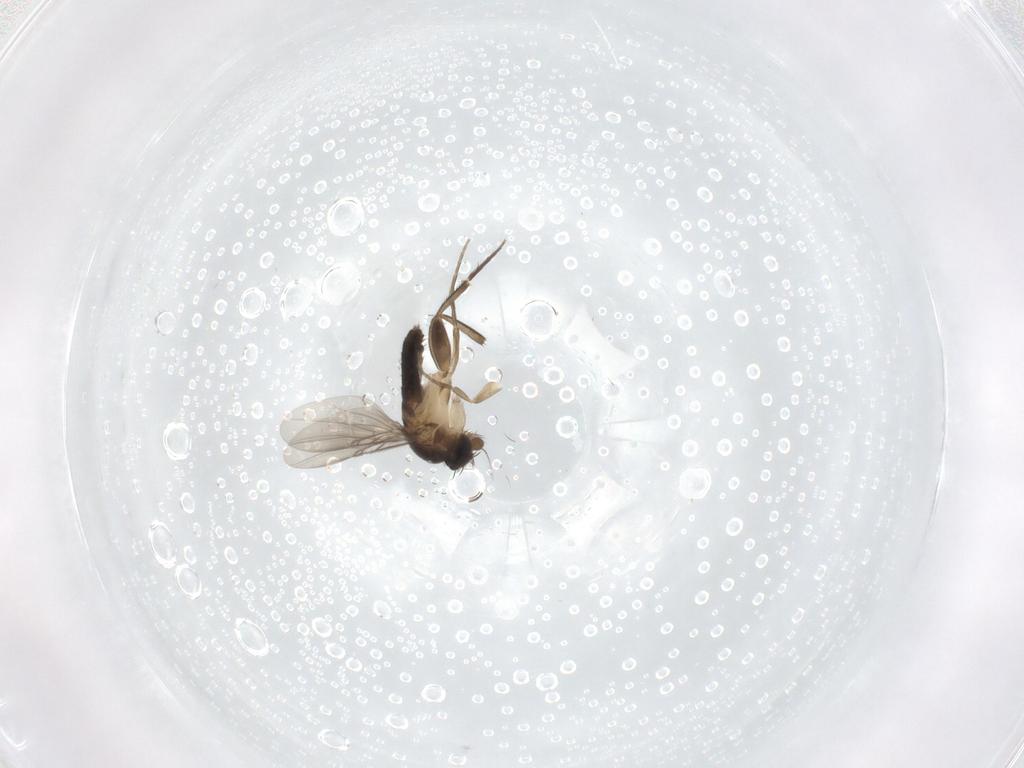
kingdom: Animalia
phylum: Arthropoda
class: Insecta
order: Diptera
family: Phoridae
